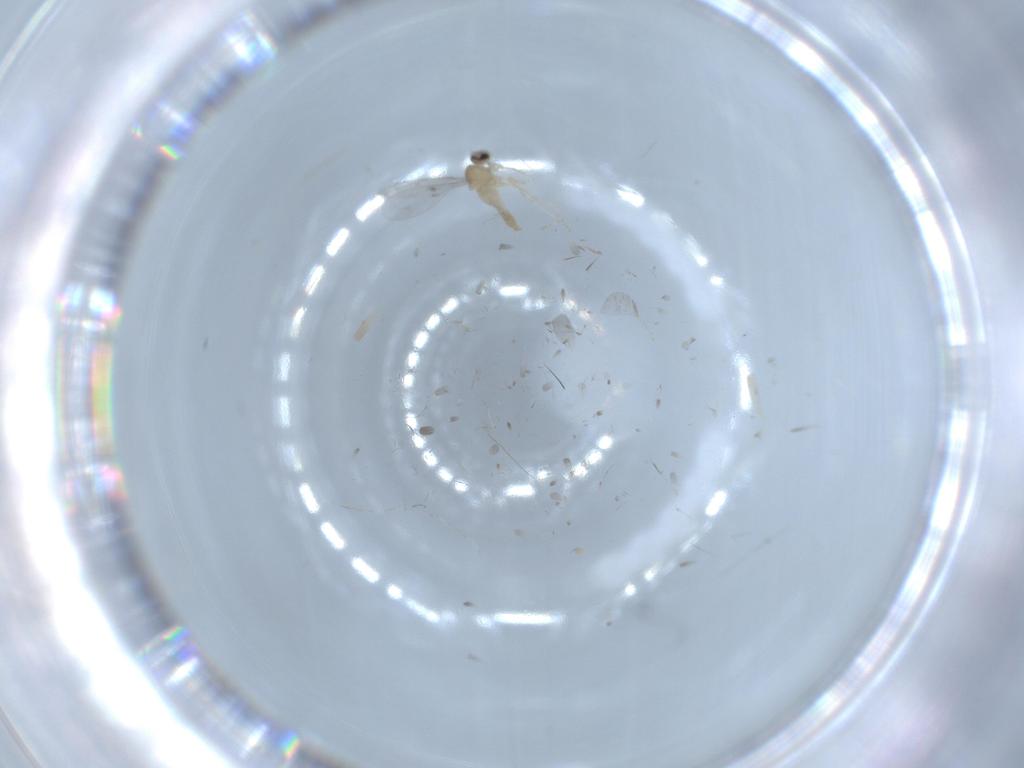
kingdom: Animalia
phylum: Arthropoda
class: Insecta
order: Diptera
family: Cecidomyiidae
